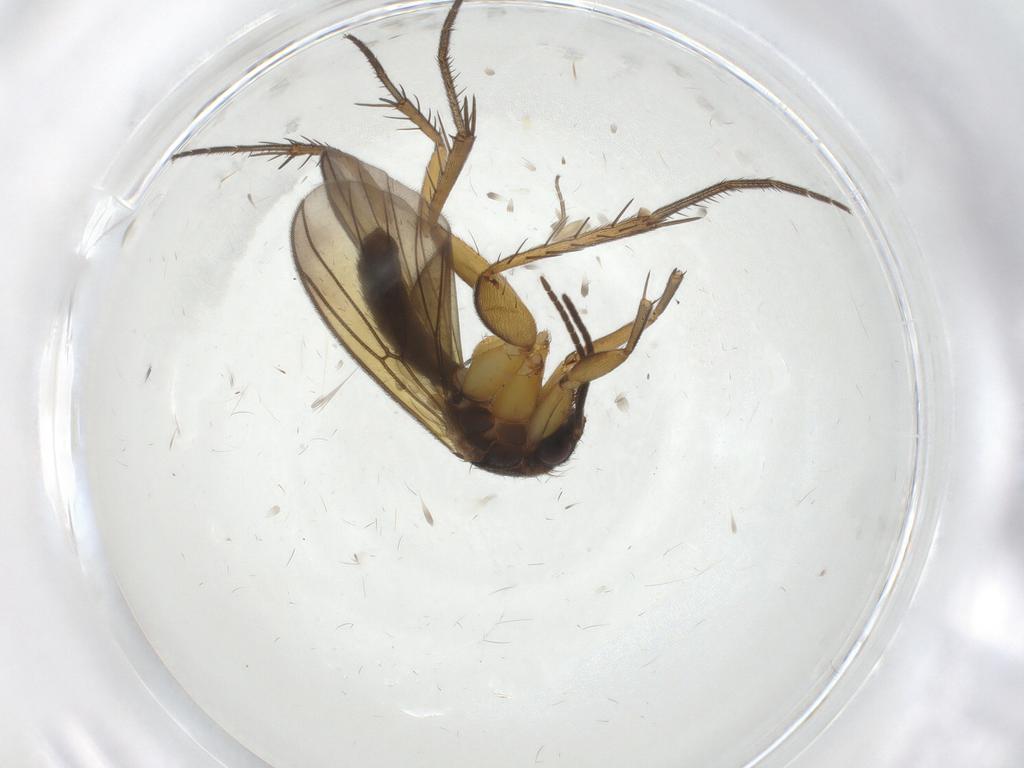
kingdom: Animalia
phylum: Arthropoda
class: Insecta
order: Diptera
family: Mycetophilidae
